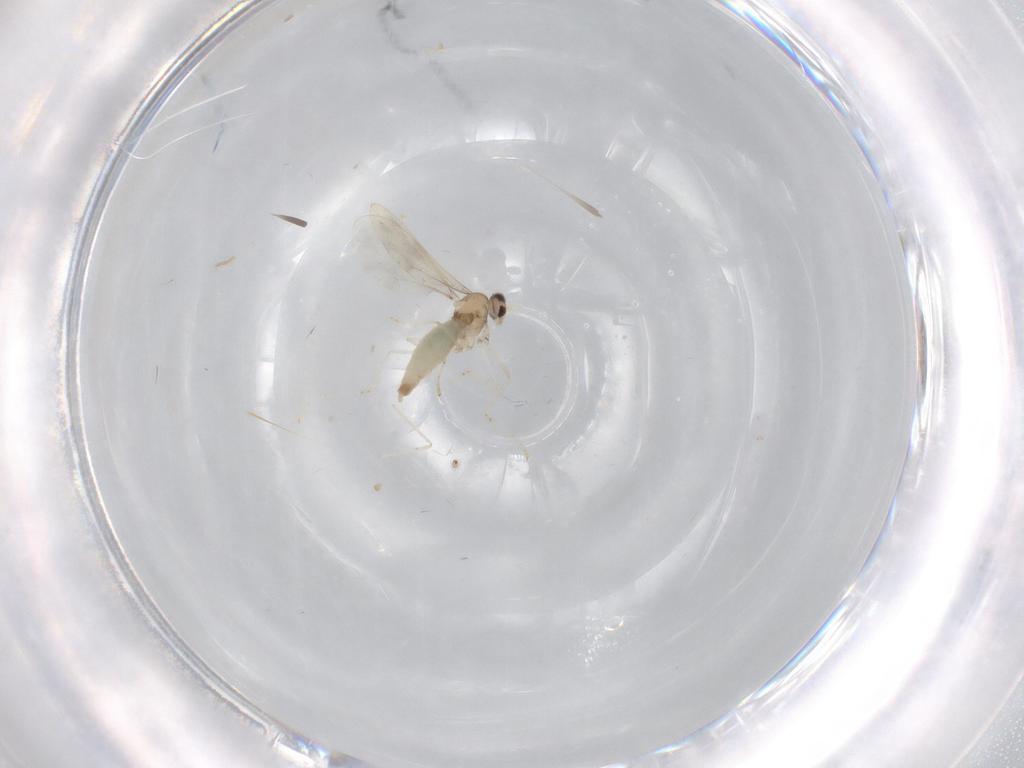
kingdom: Animalia
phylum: Arthropoda
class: Insecta
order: Diptera
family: Cecidomyiidae
